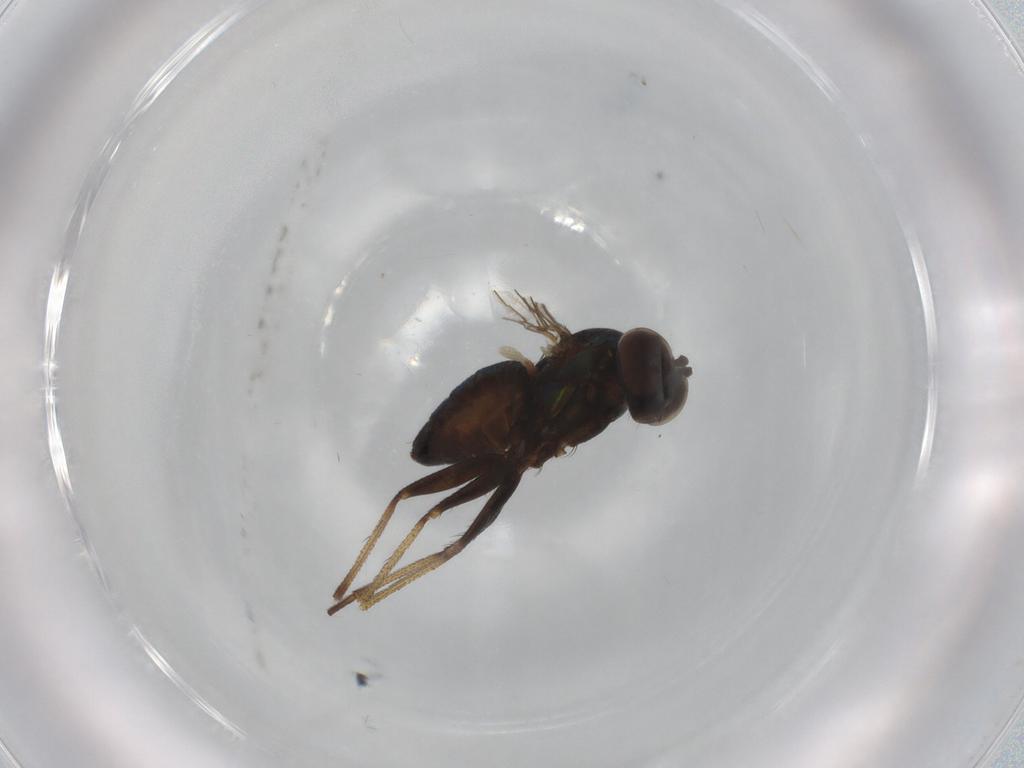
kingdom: Animalia
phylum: Arthropoda
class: Insecta
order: Diptera
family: Dolichopodidae
